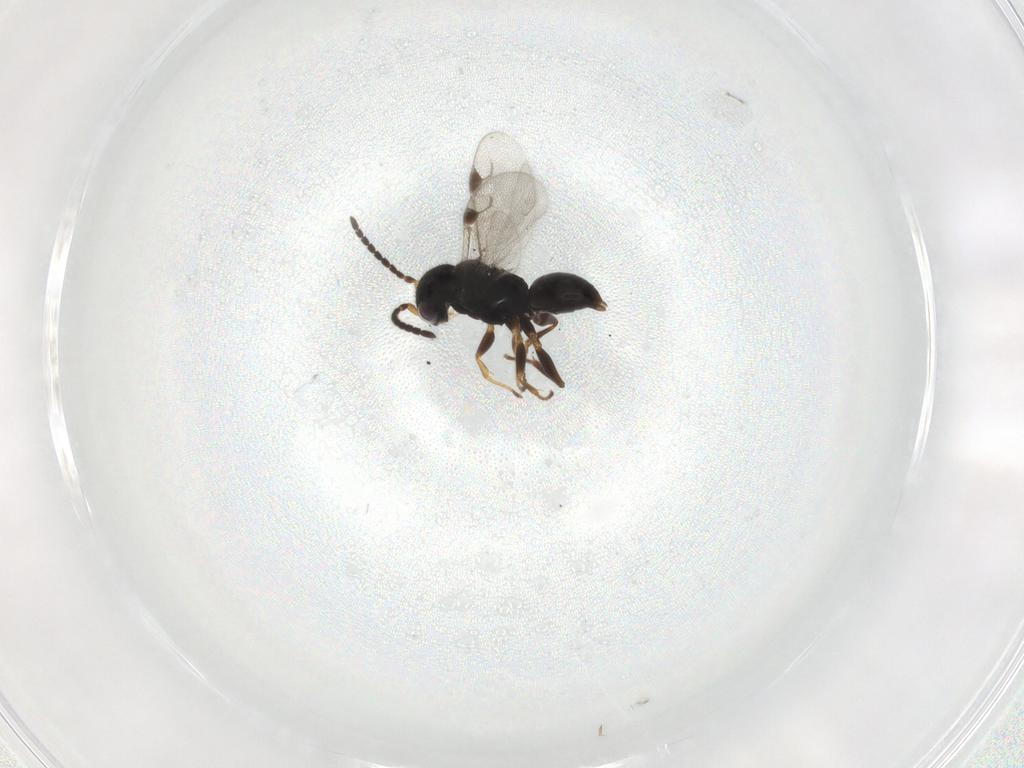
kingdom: Animalia
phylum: Arthropoda
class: Insecta
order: Hymenoptera
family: Dryinidae
